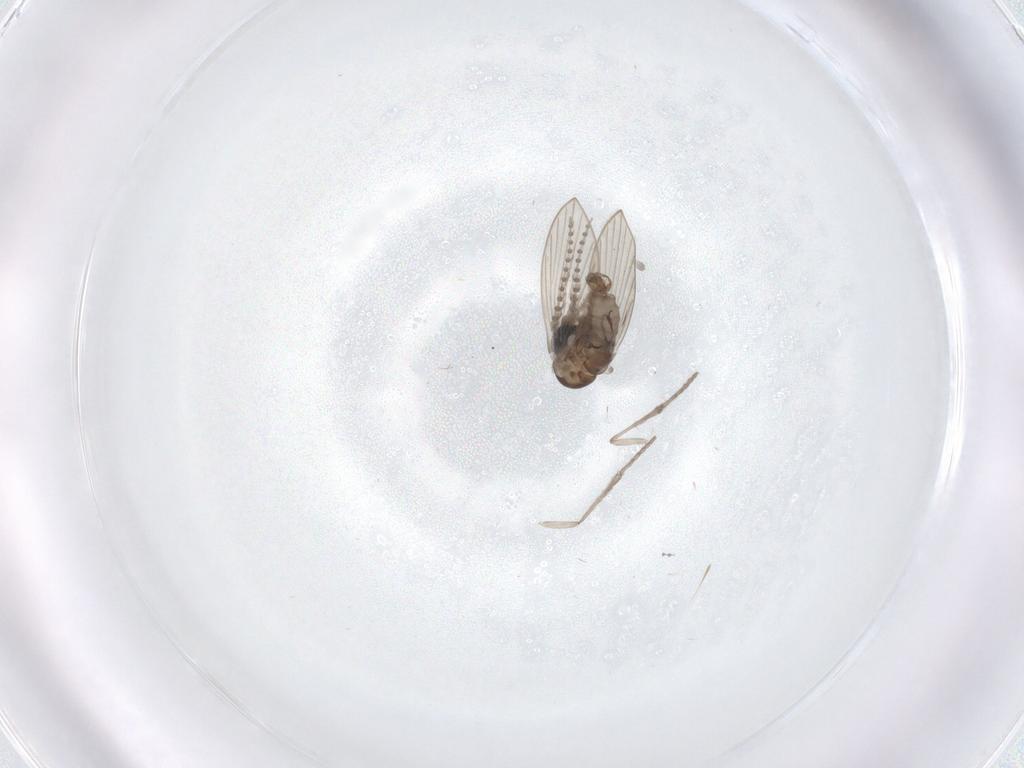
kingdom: Animalia
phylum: Arthropoda
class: Insecta
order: Diptera
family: Psychodidae
